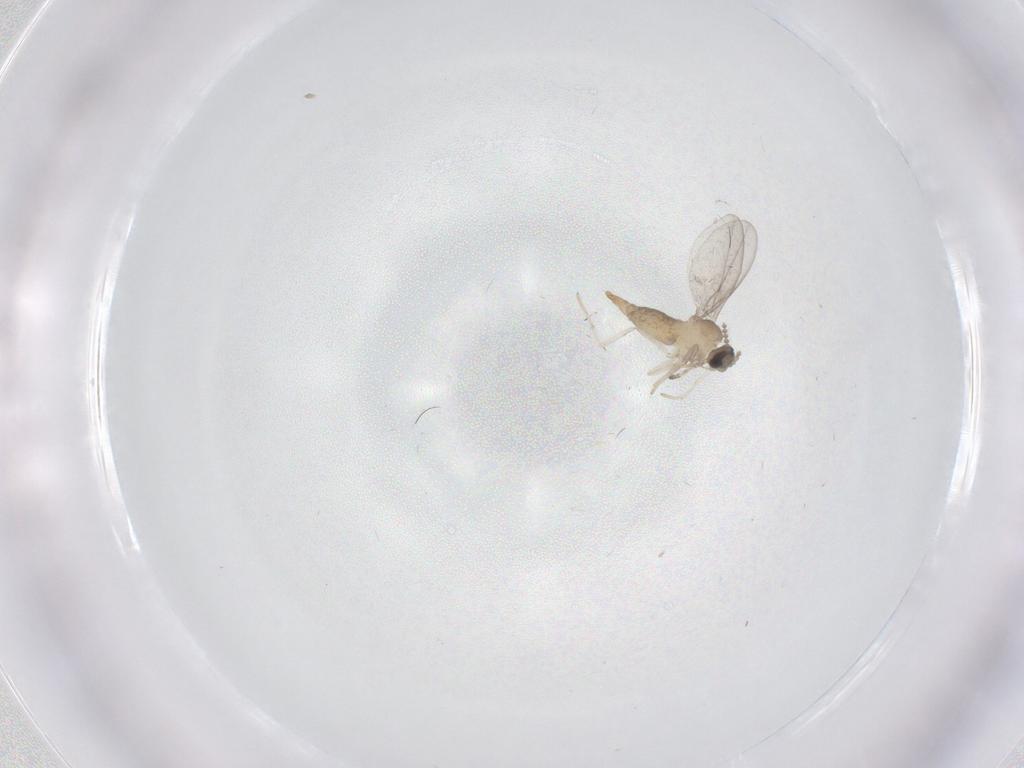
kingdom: Animalia
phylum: Arthropoda
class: Insecta
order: Diptera
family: Cecidomyiidae
